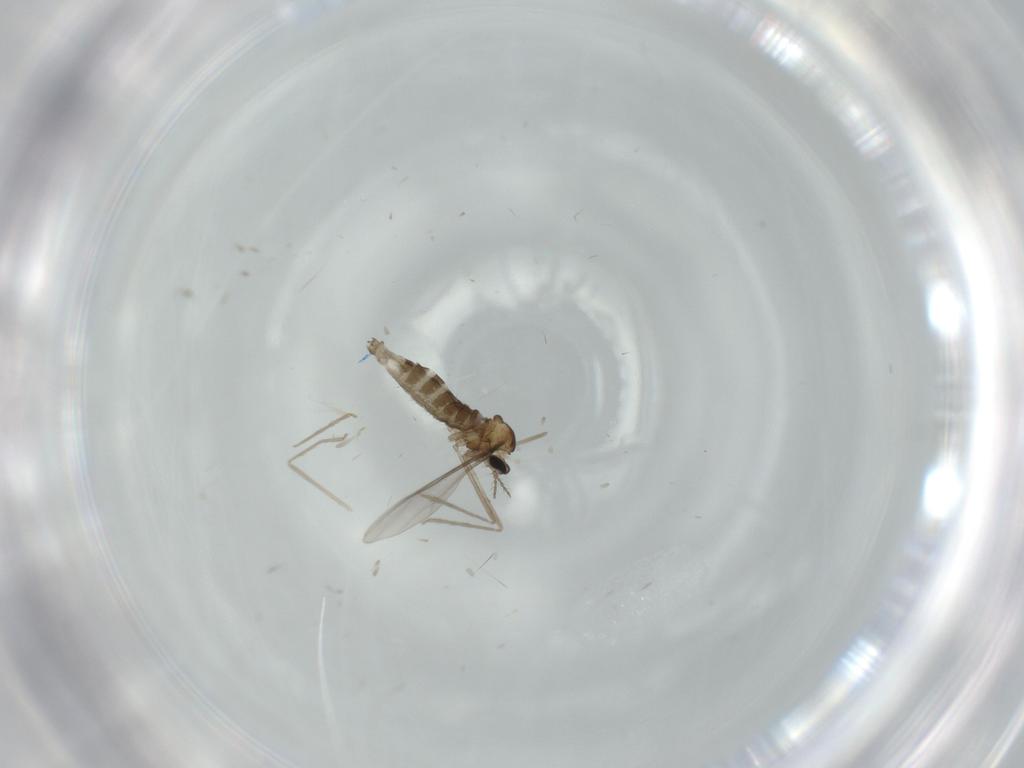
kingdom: Animalia
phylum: Arthropoda
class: Insecta
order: Diptera
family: Cecidomyiidae
